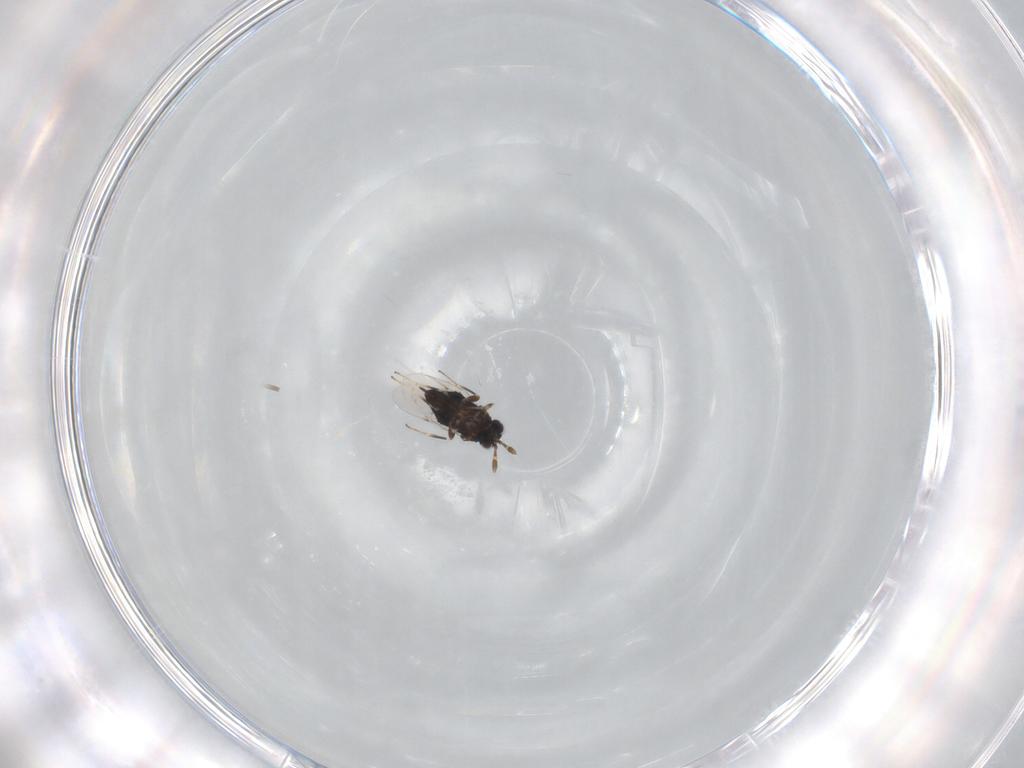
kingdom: Animalia
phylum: Arthropoda
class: Insecta
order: Hymenoptera
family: Encyrtidae
